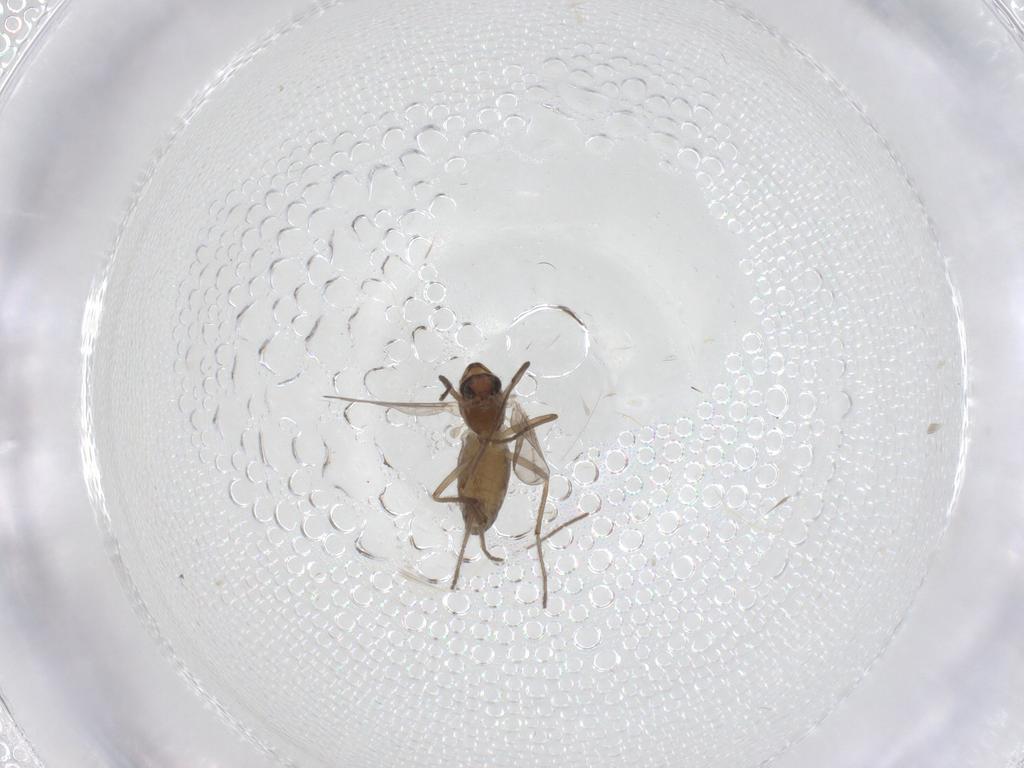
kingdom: Animalia
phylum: Arthropoda
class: Insecta
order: Diptera
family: Chironomidae
